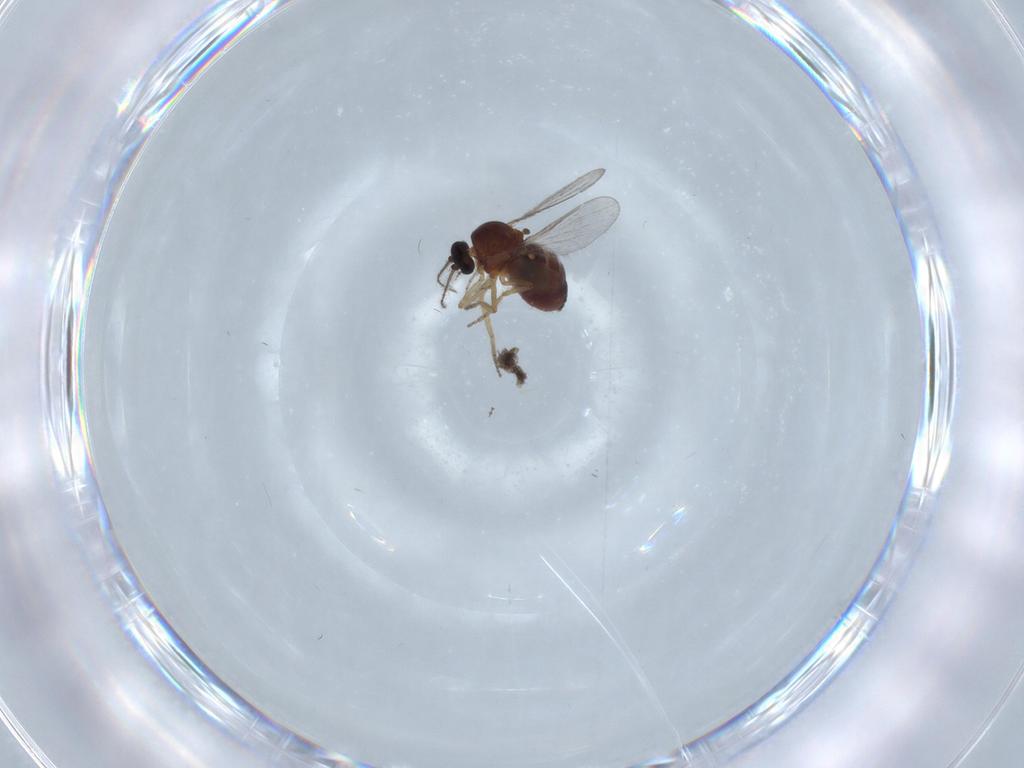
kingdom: Animalia
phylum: Arthropoda
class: Insecta
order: Diptera
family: Ceratopogonidae
